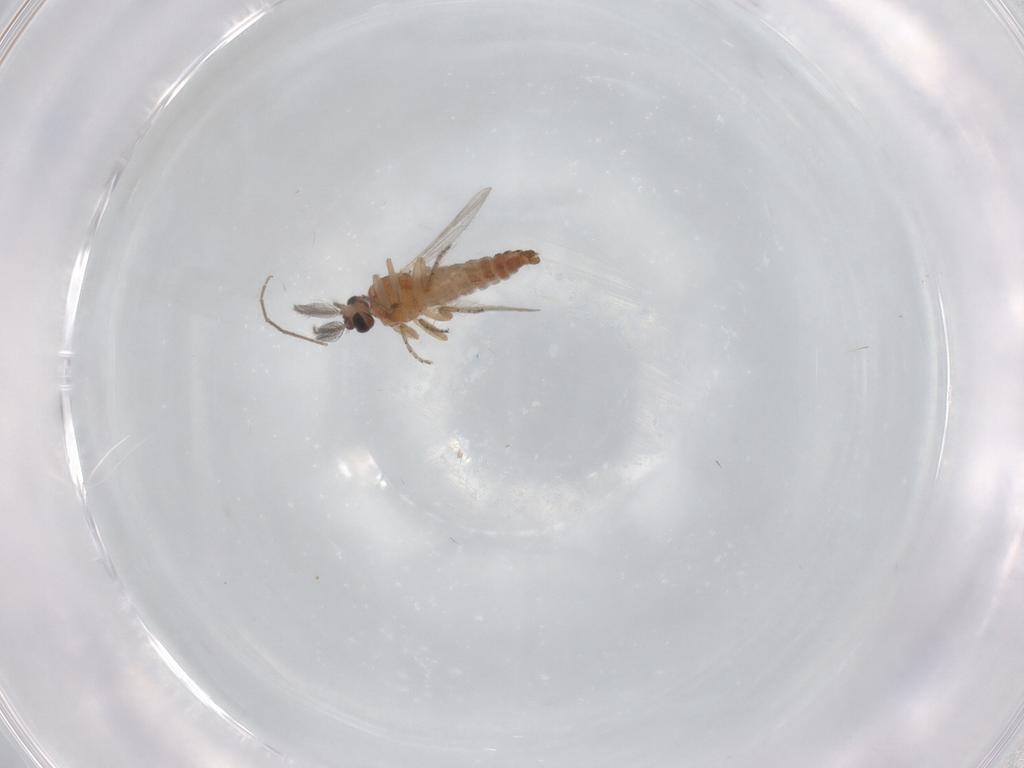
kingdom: Animalia
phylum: Arthropoda
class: Insecta
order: Diptera
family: Ceratopogonidae
